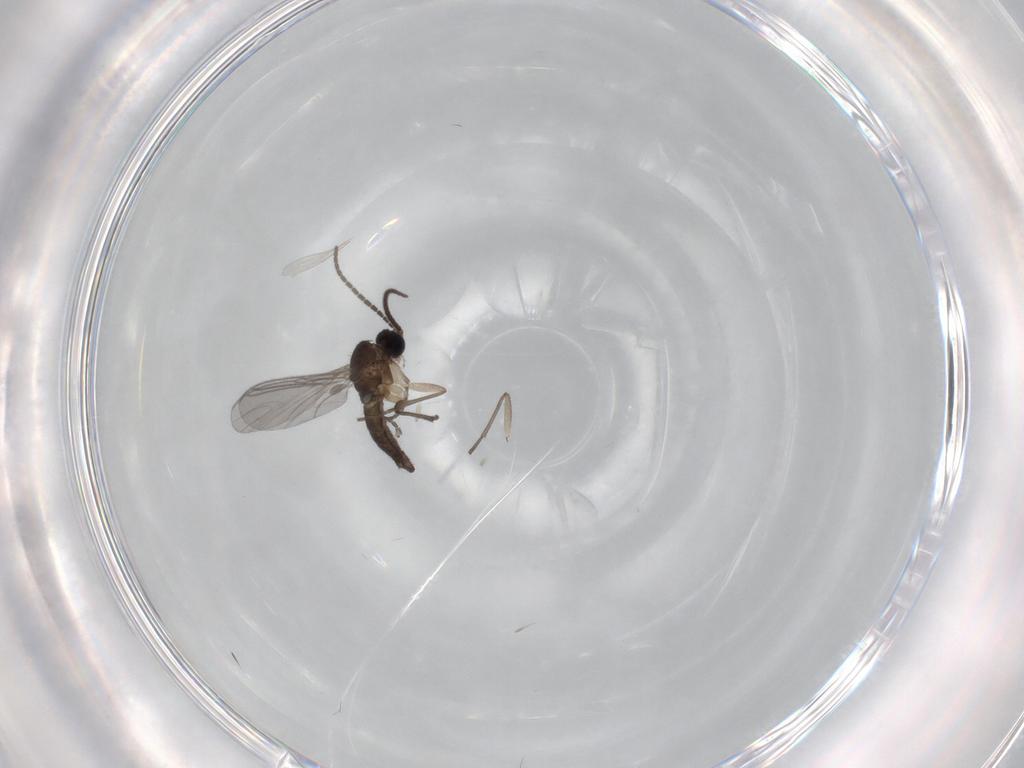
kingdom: Animalia
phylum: Arthropoda
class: Insecta
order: Diptera
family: Sciaridae
